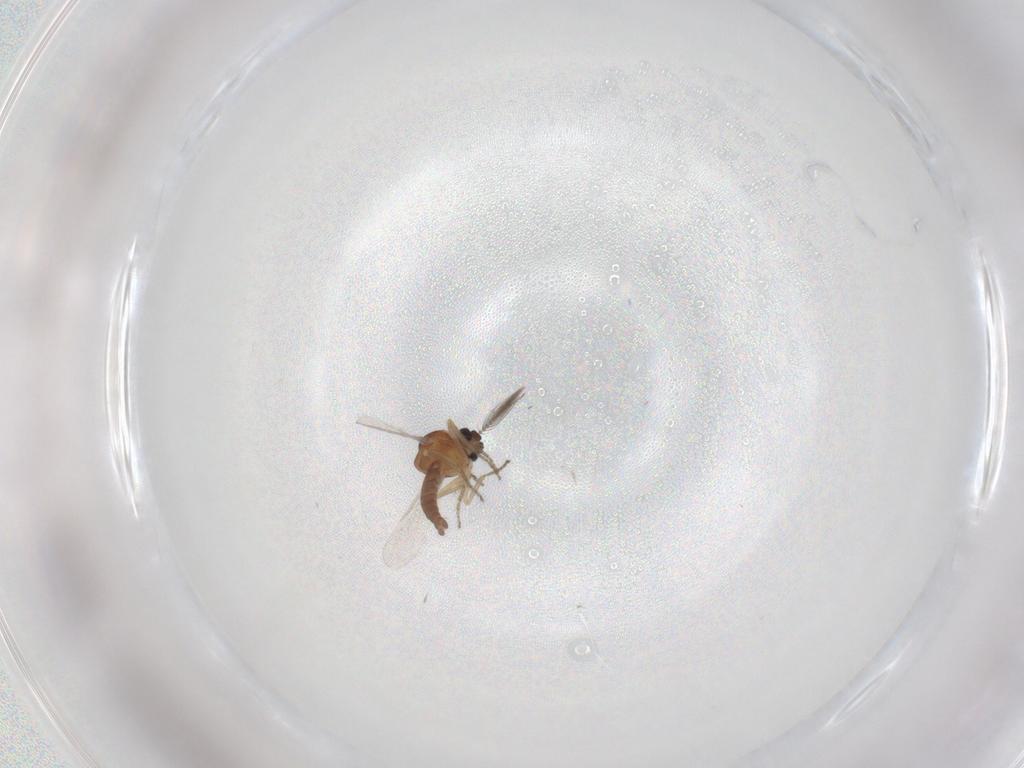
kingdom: Animalia
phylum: Arthropoda
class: Insecta
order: Diptera
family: Ceratopogonidae
